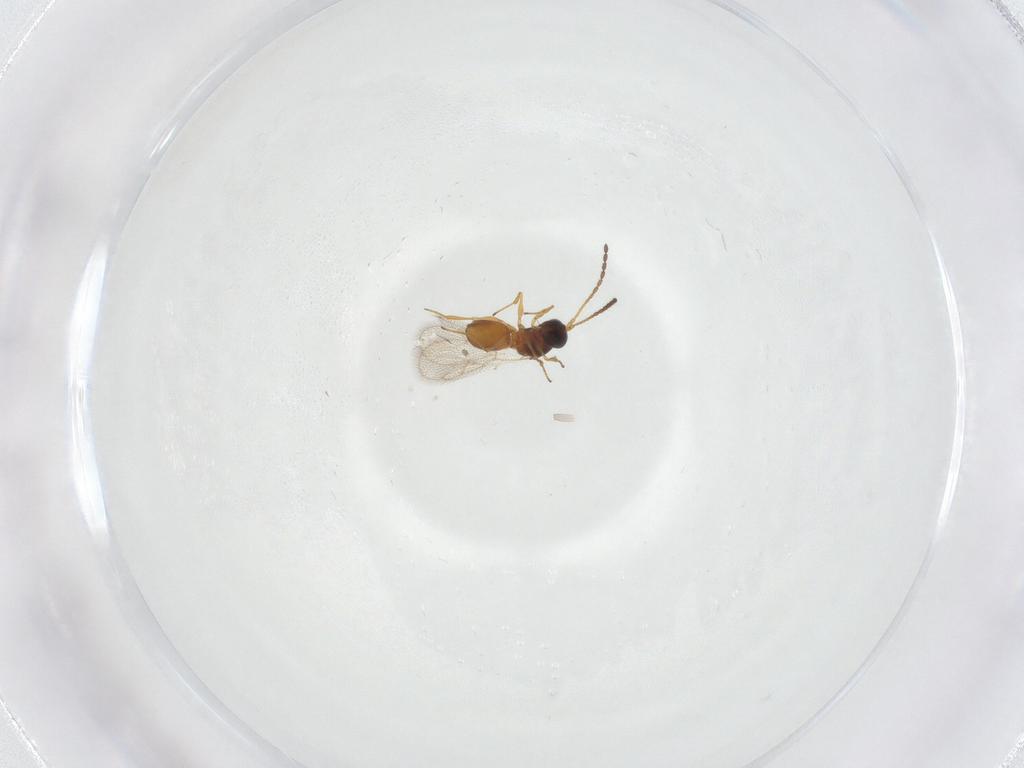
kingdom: Animalia
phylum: Arthropoda
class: Insecta
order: Hymenoptera
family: Figitidae
